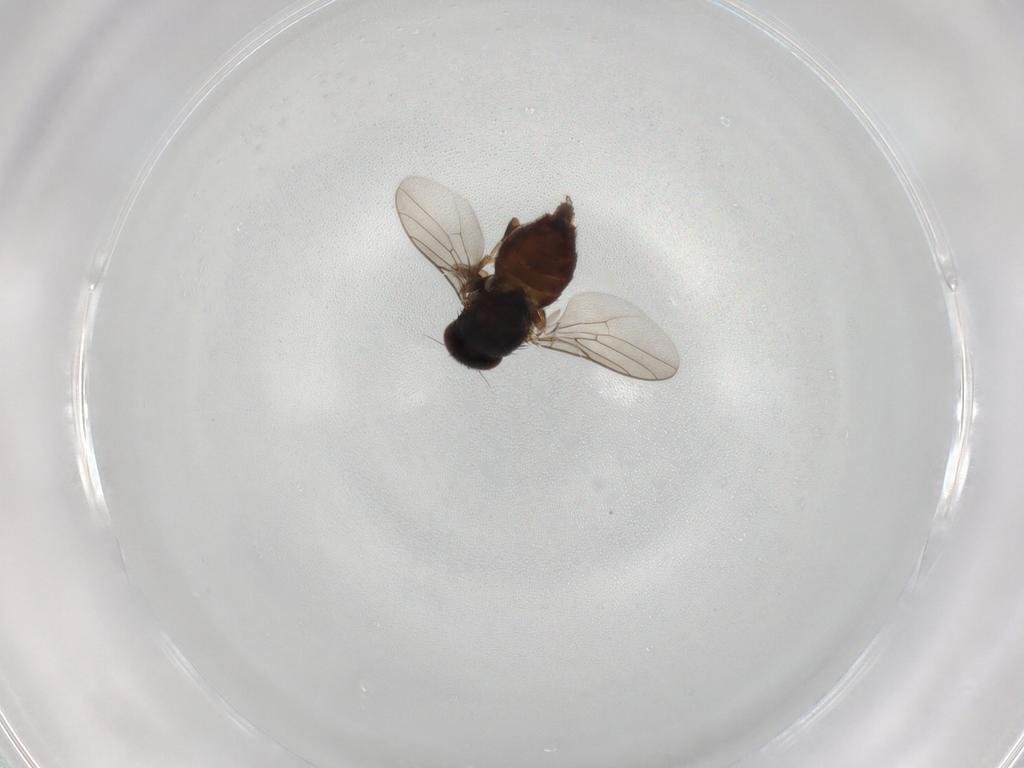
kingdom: Animalia
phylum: Arthropoda
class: Insecta
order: Diptera
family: Chloropidae
